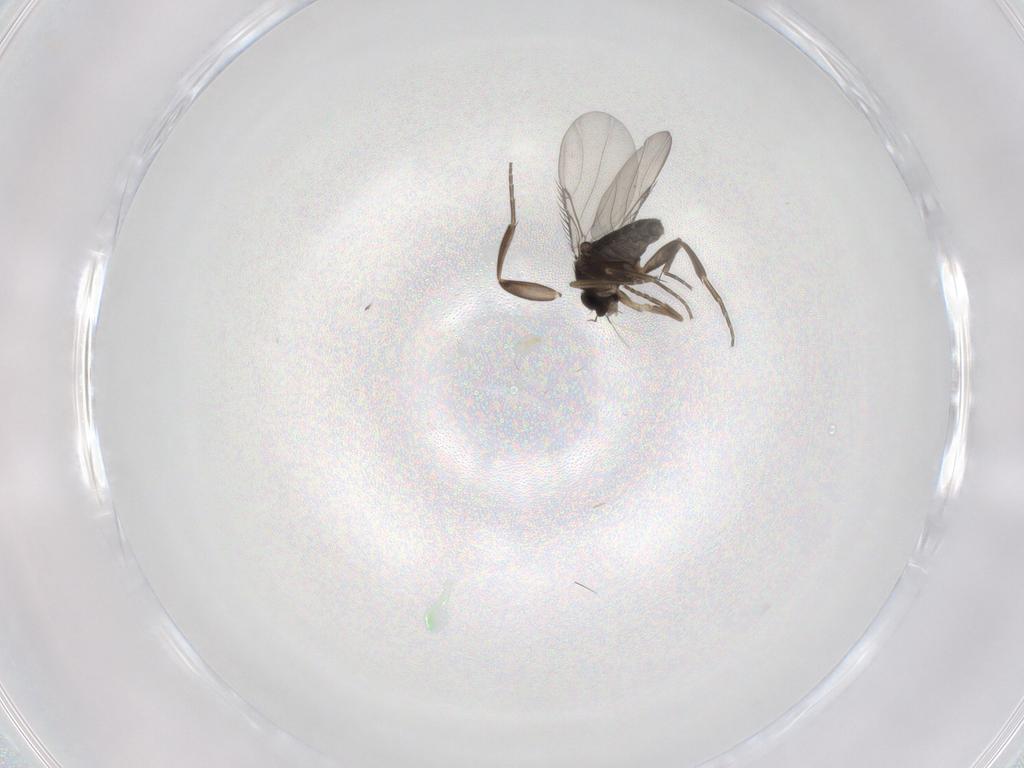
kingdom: Animalia
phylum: Arthropoda
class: Insecta
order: Diptera
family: Phoridae
